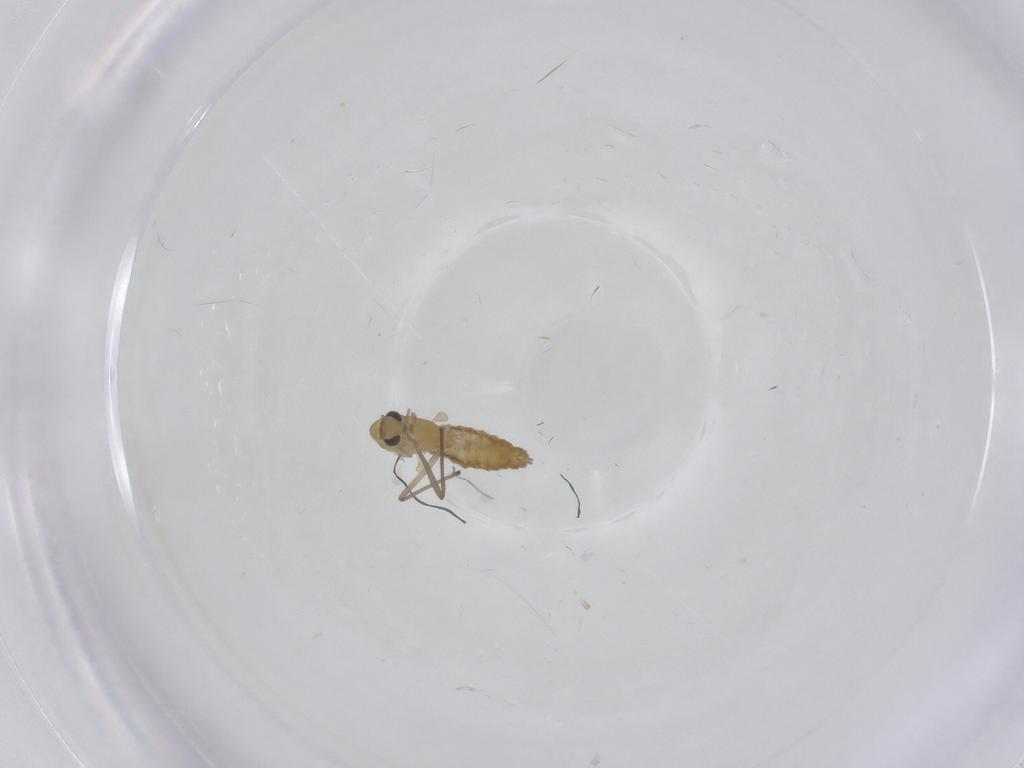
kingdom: Animalia
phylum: Arthropoda
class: Insecta
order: Diptera
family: Chironomidae
